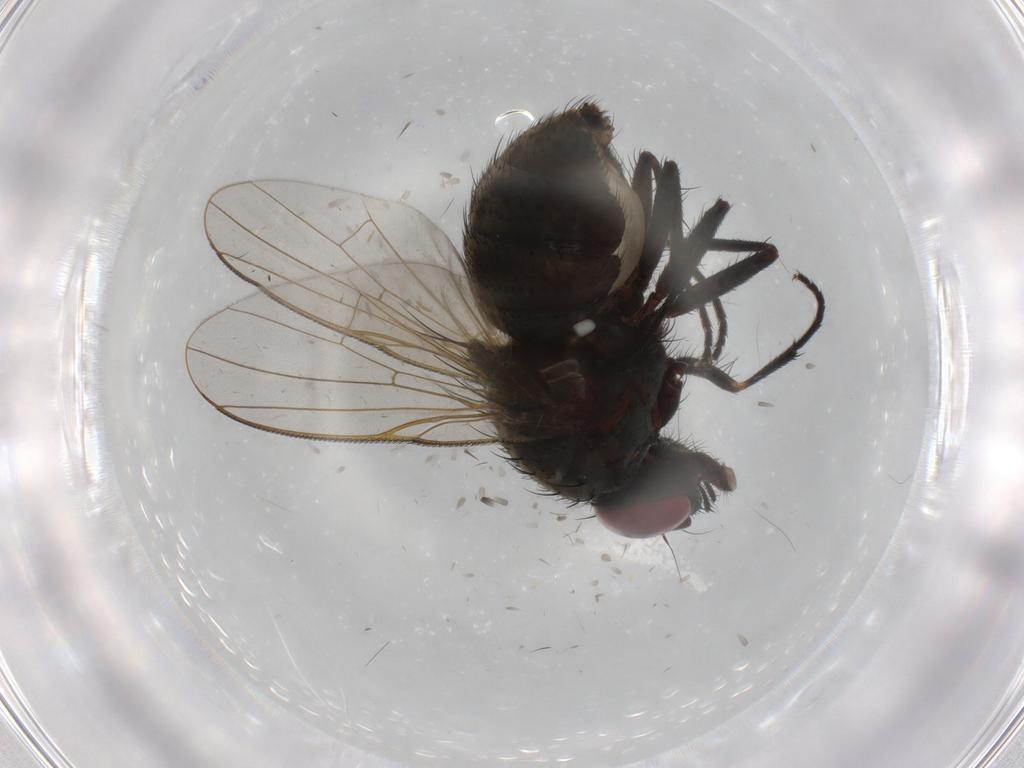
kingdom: Animalia
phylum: Arthropoda
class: Insecta
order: Diptera
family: Muscidae
